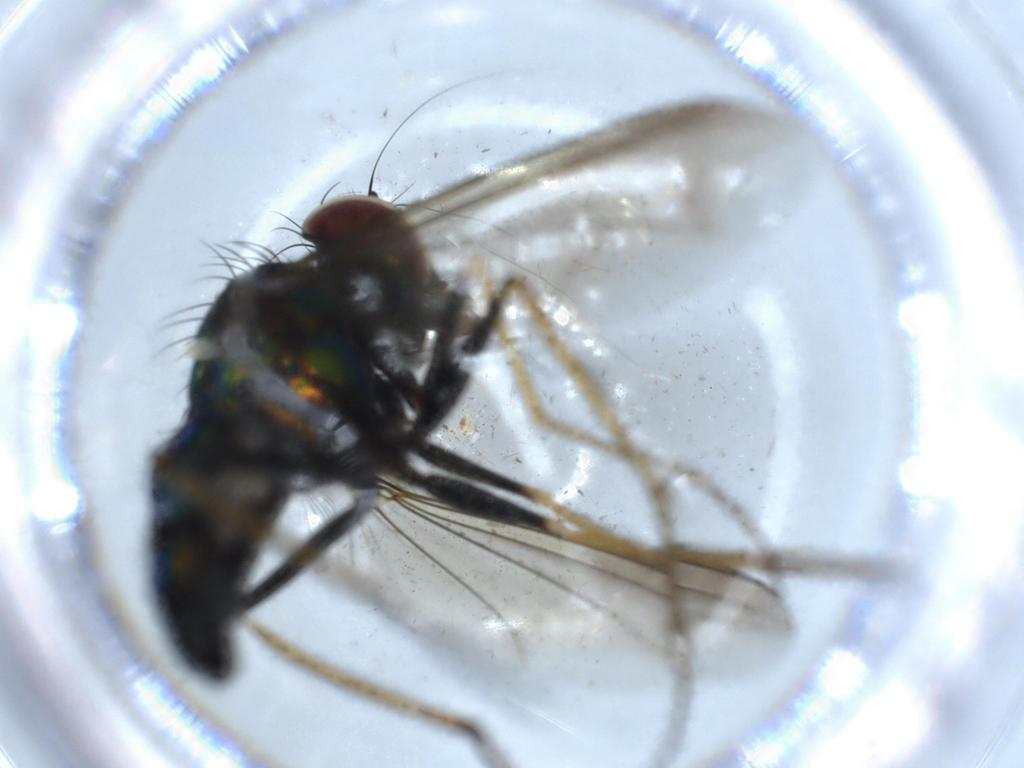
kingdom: Animalia
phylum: Arthropoda
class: Insecta
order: Diptera
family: Dolichopodidae
